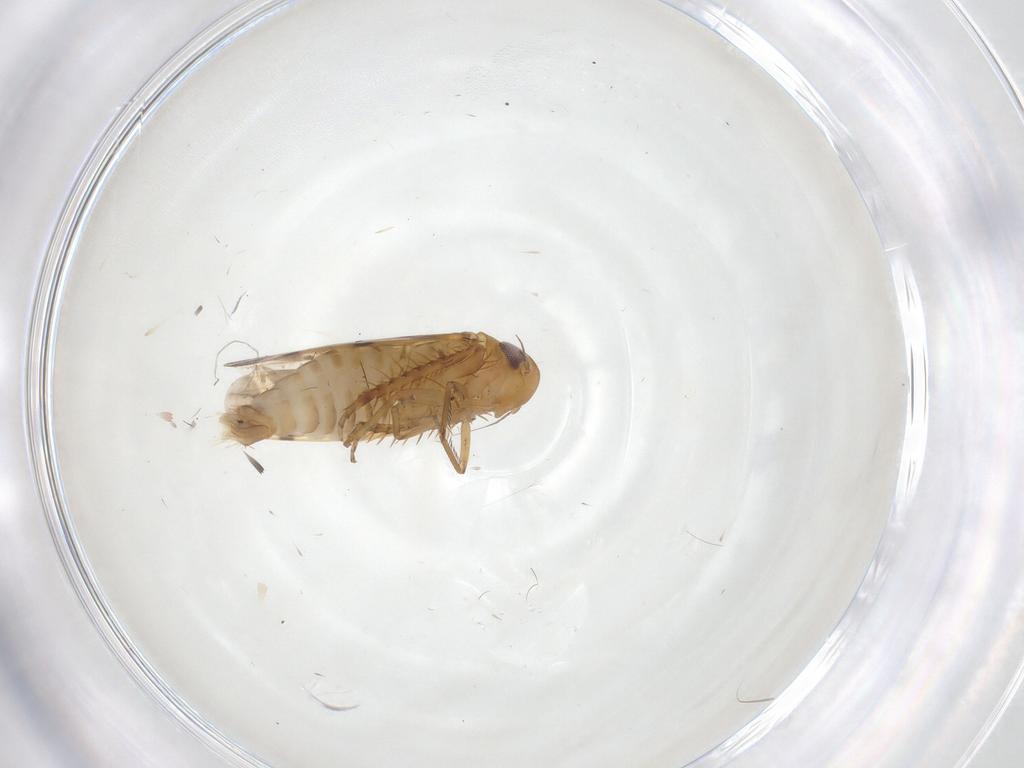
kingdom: Animalia
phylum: Arthropoda
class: Insecta
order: Hemiptera
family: Cicadellidae
